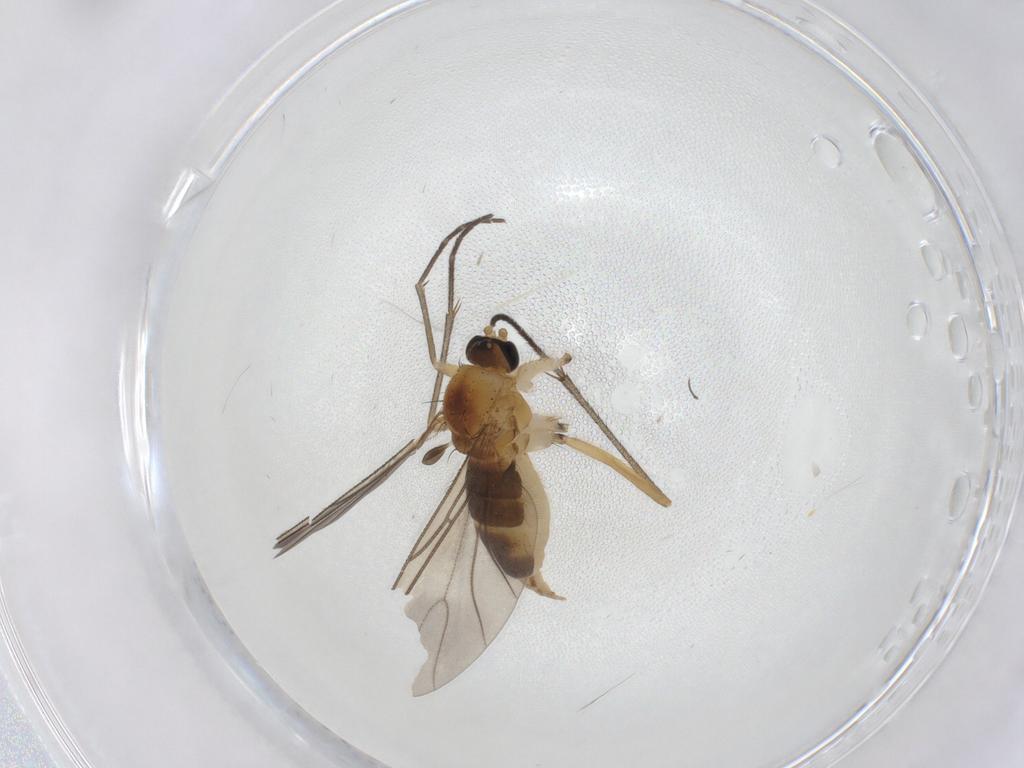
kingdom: Animalia
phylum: Arthropoda
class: Insecta
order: Diptera
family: Sciaridae
